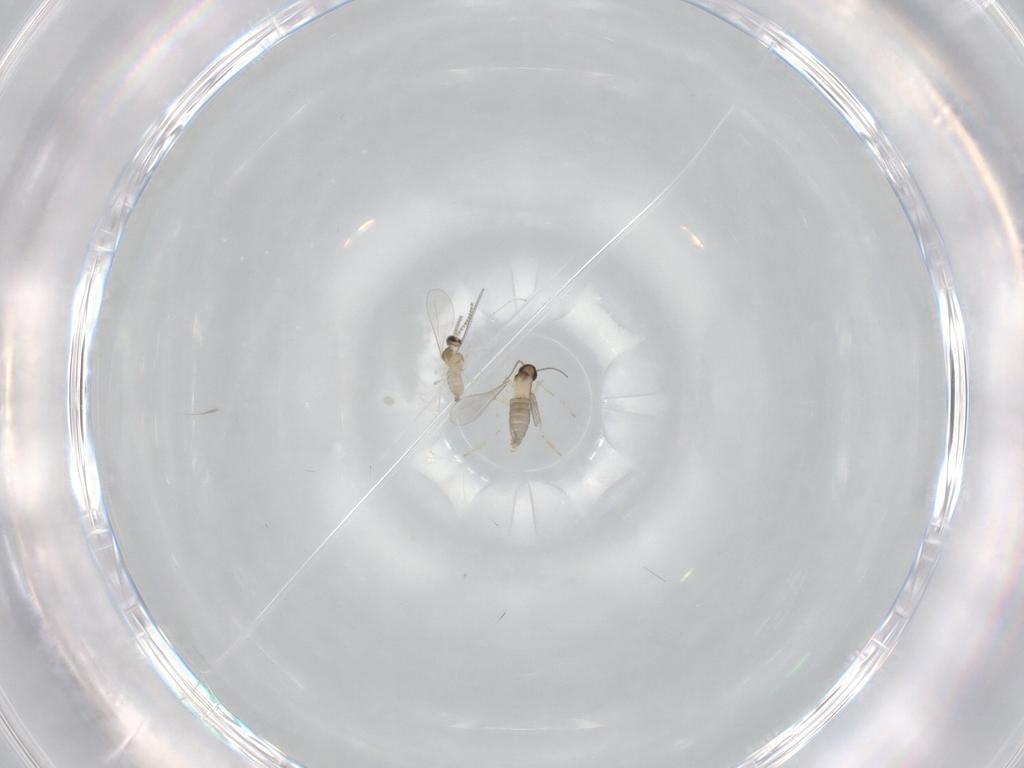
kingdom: Animalia
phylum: Arthropoda
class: Insecta
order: Diptera
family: Cecidomyiidae
